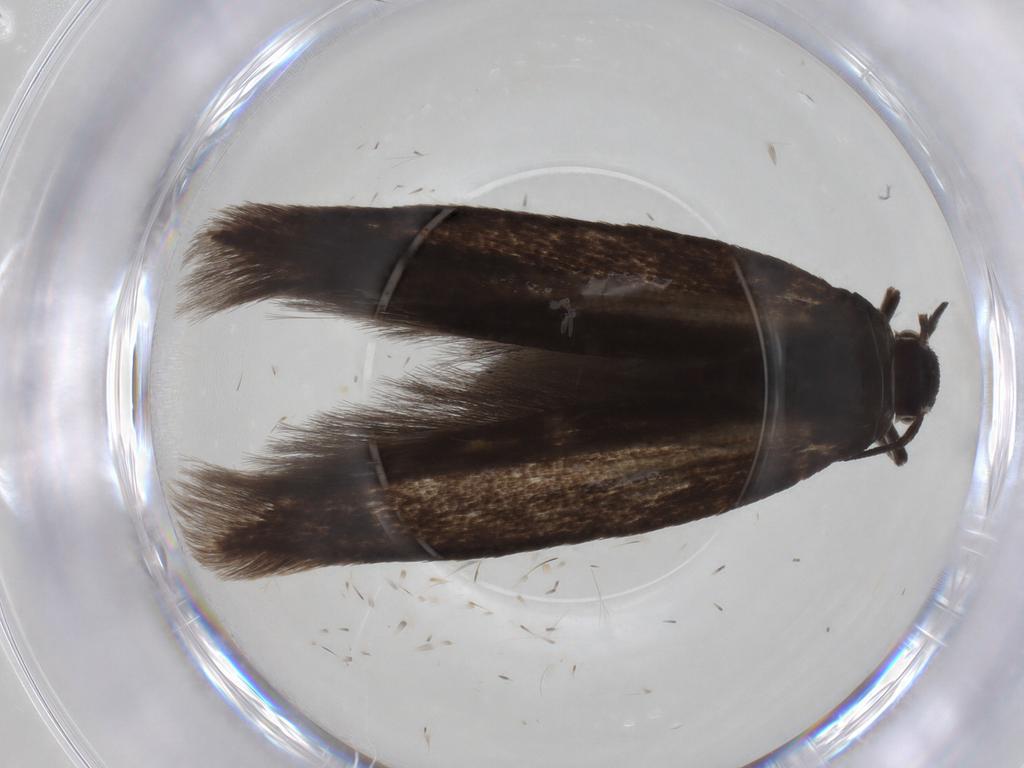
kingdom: Animalia
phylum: Arthropoda
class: Insecta
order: Lepidoptera
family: Scythrididae
